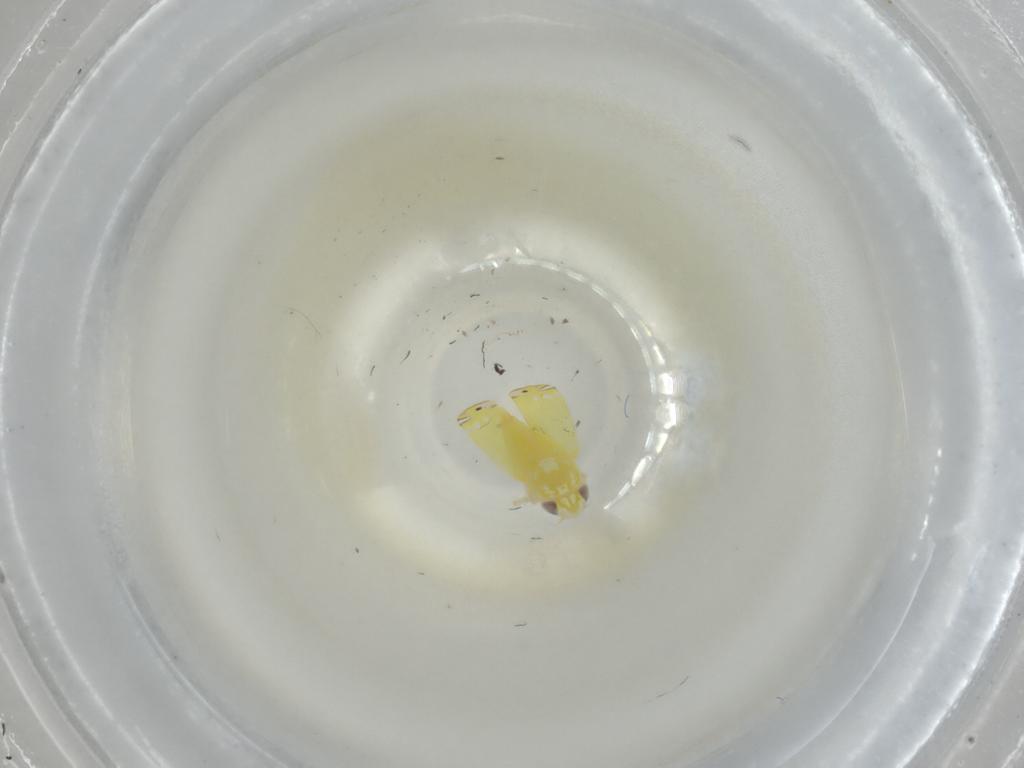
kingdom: Animalia
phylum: Arthropoda
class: Insecta
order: Hemiptera
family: Cicadellidae
